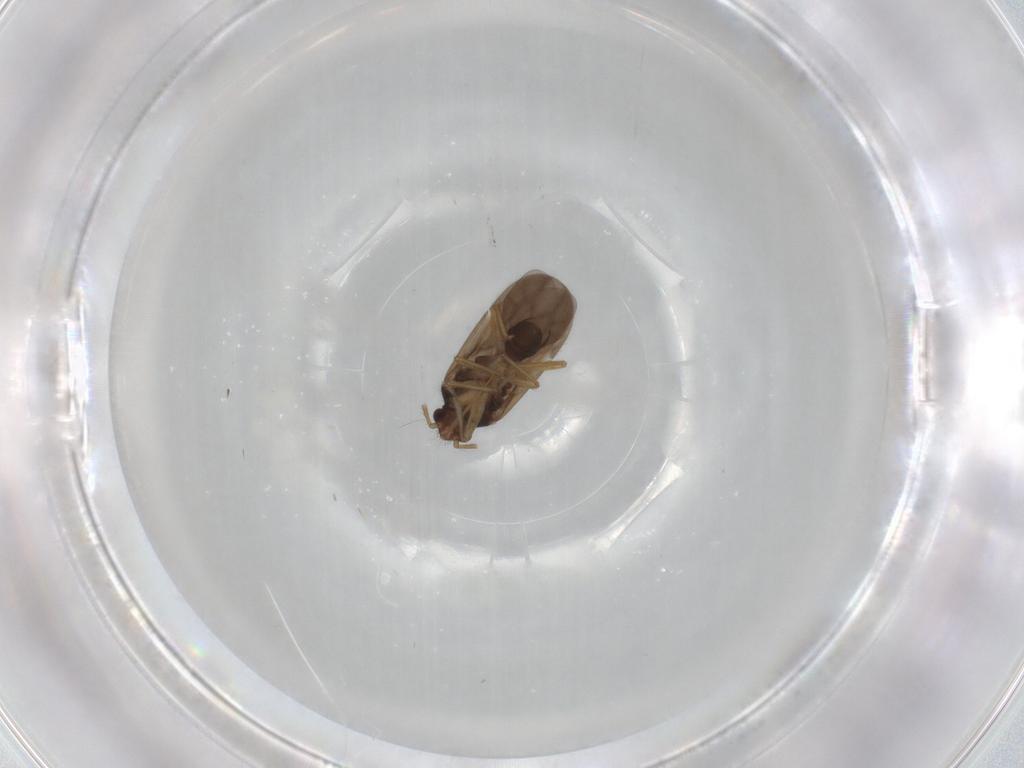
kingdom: Animalia
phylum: Arthropoda
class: Insecta
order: Hemiptera
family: Ceratocombidae
